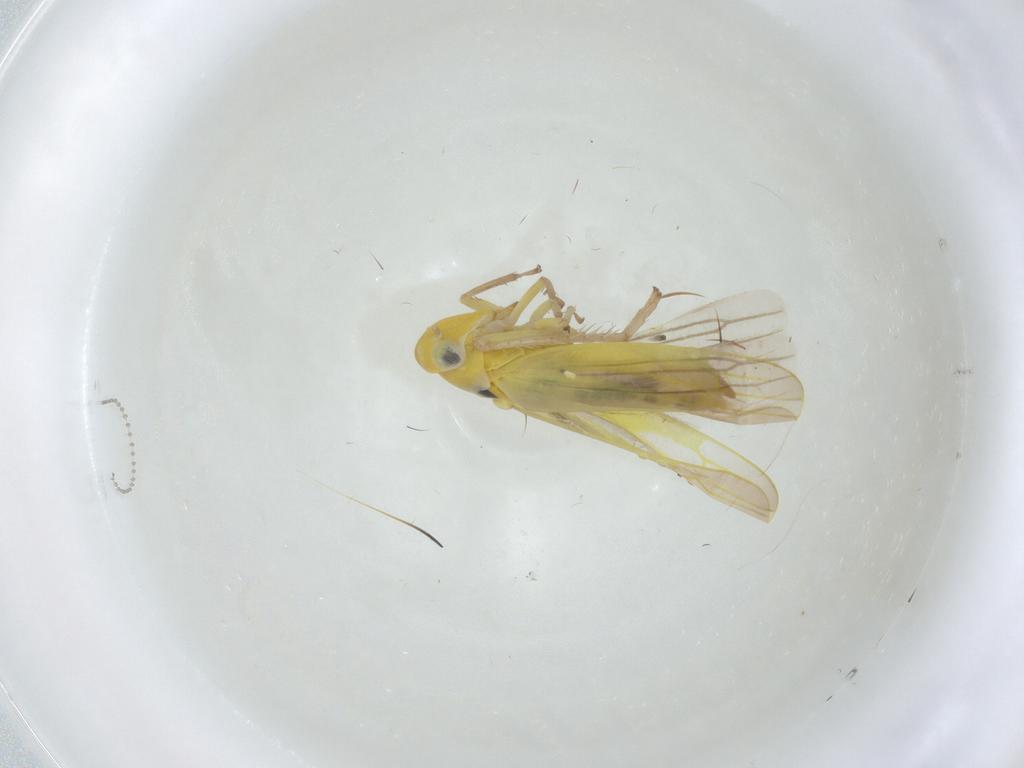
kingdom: Animalia
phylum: Arthropoda
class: Insecta
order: Hemiptera
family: Cicadellidae
